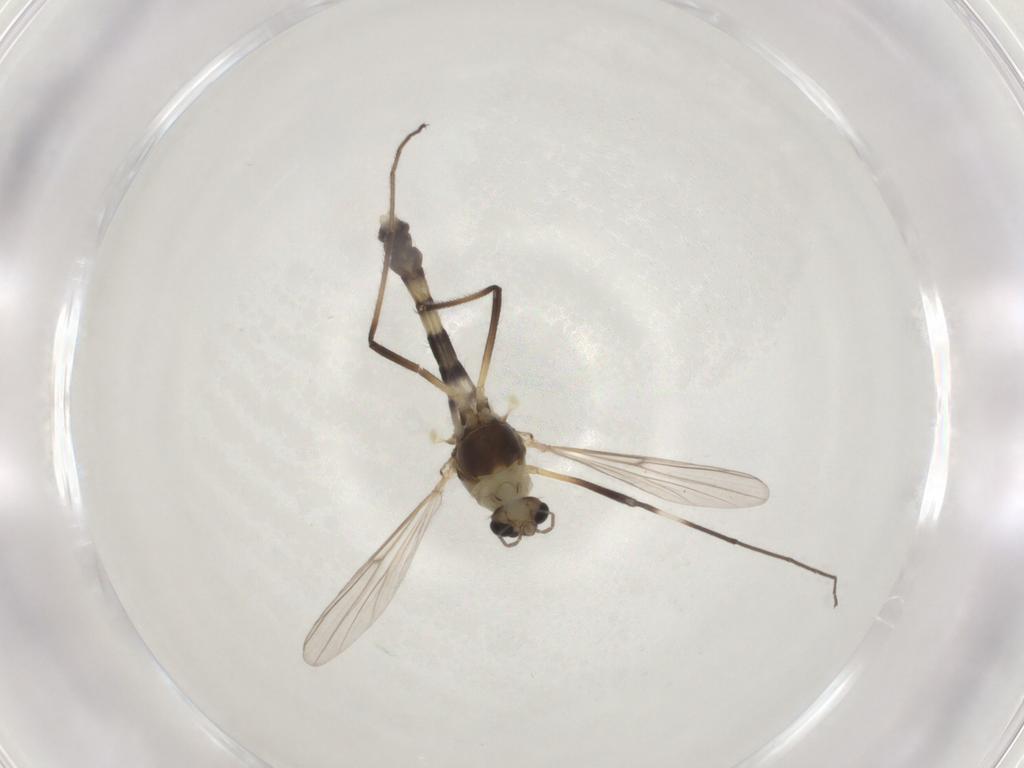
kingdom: Animalia
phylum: Arthropoda
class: Insecta
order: Diptera
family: Chironomidae
